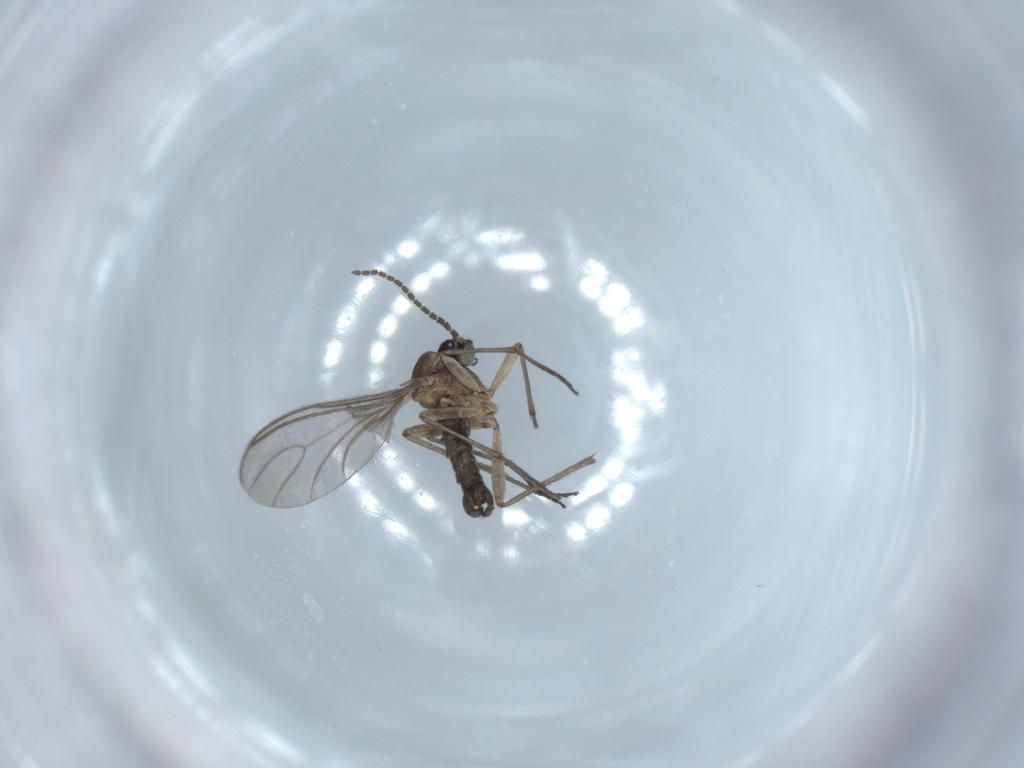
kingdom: Animalia
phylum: Arthropoda
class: Insecta
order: Diptera
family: Sciaridae
